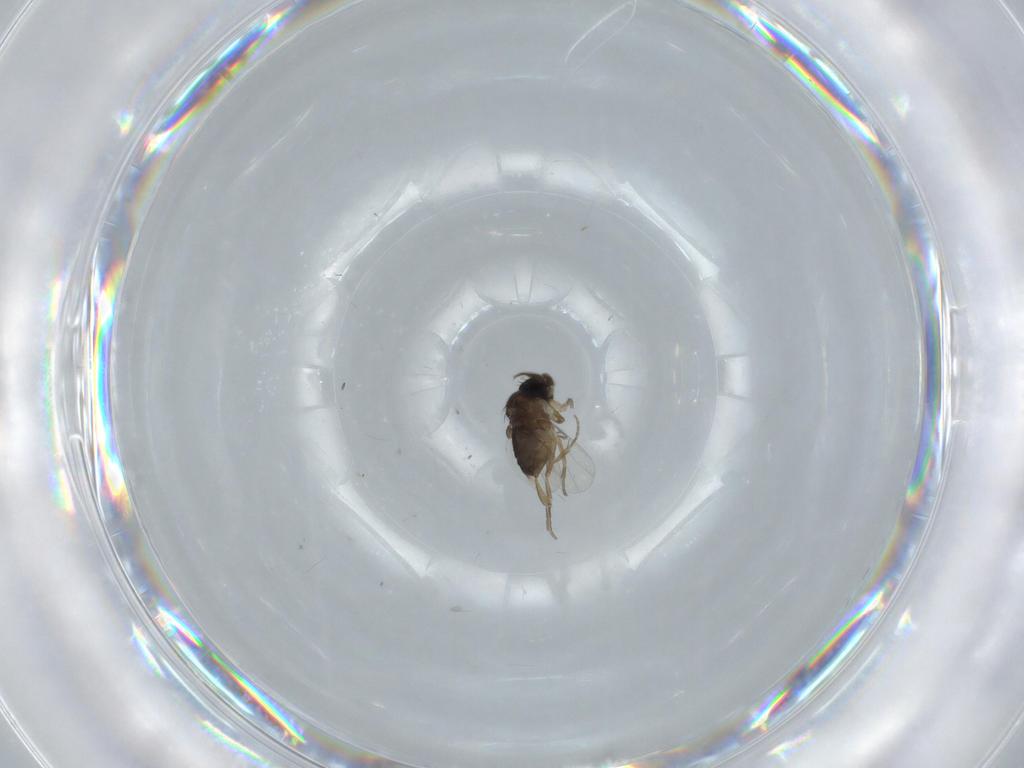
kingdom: Animalia
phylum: Arthropoda
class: Insecta
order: Diptera
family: Phoridae
